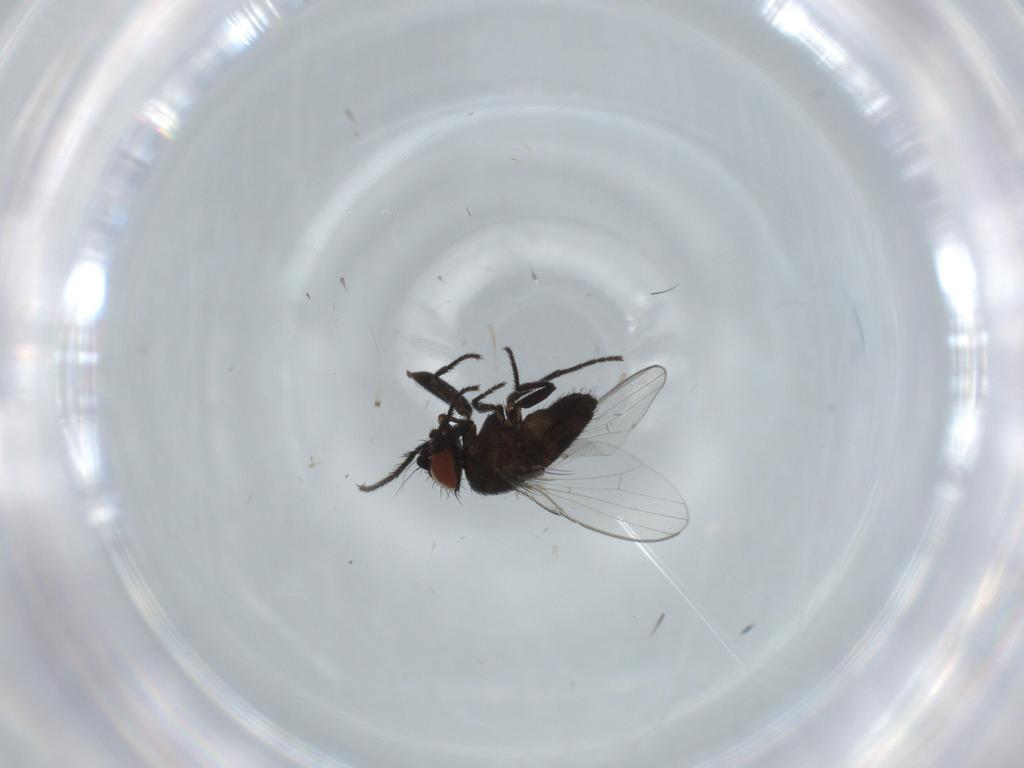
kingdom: Animalia
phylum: Arthropoda
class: Insecta
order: Diptera
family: Milichiidae
